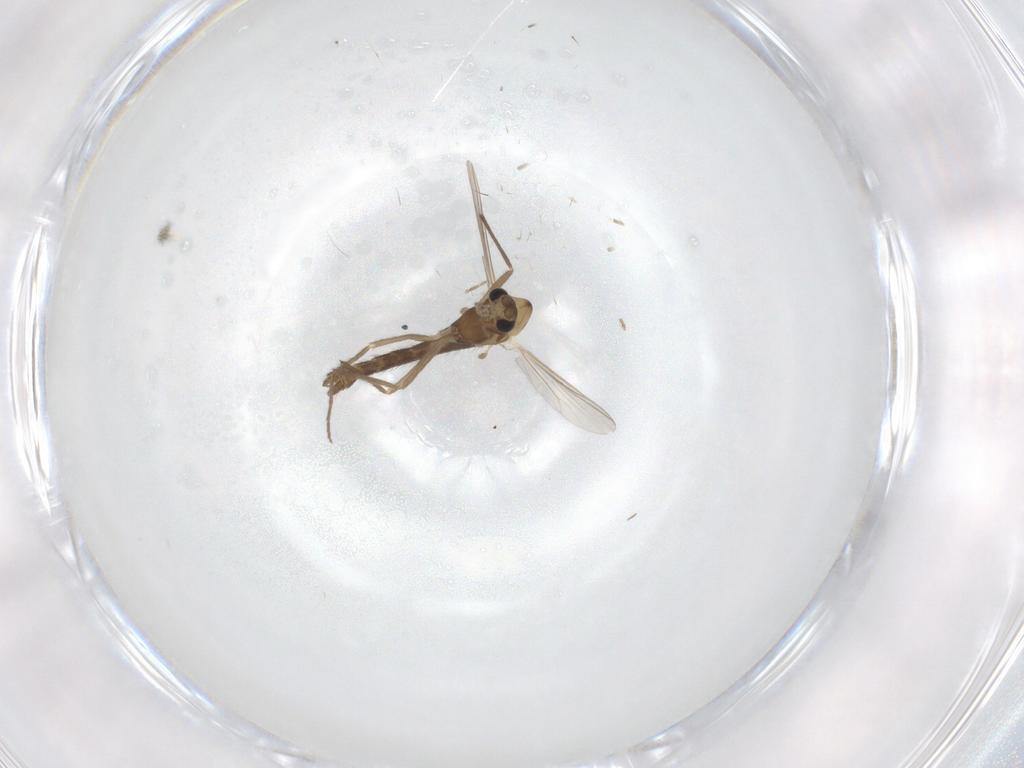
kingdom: Animalia
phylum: Arthropoda
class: Insecta
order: Diptera
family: Chironomidae
